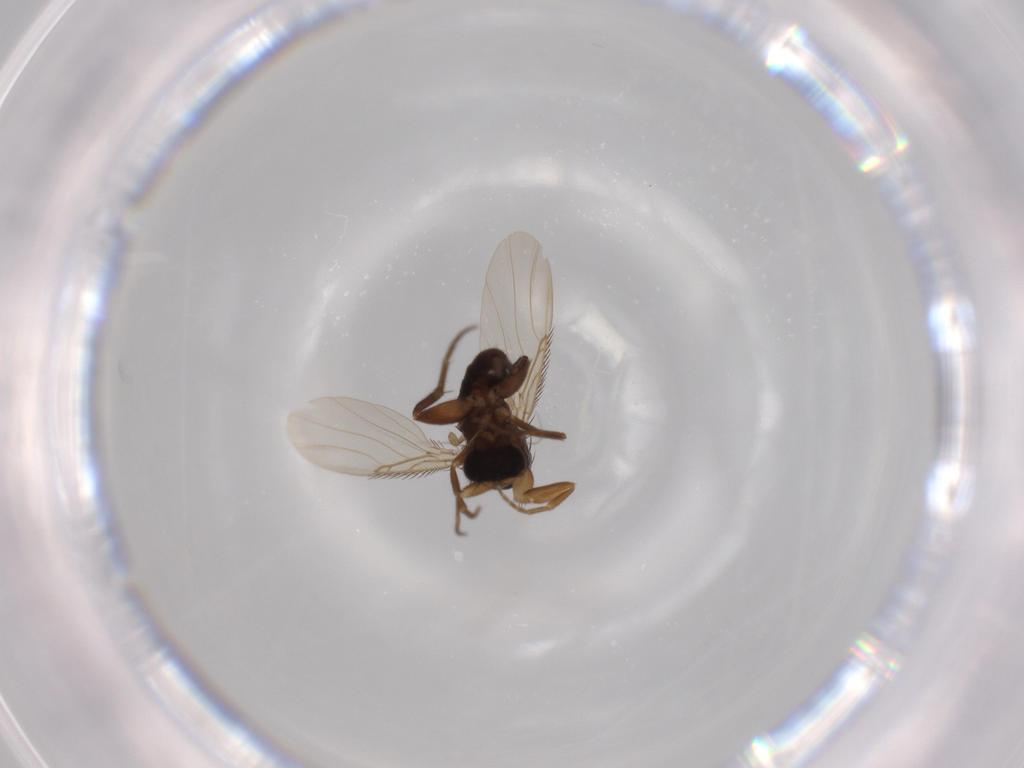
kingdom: Animalia
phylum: Arthropoda
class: Insecta
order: Diptera
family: Phoridae
